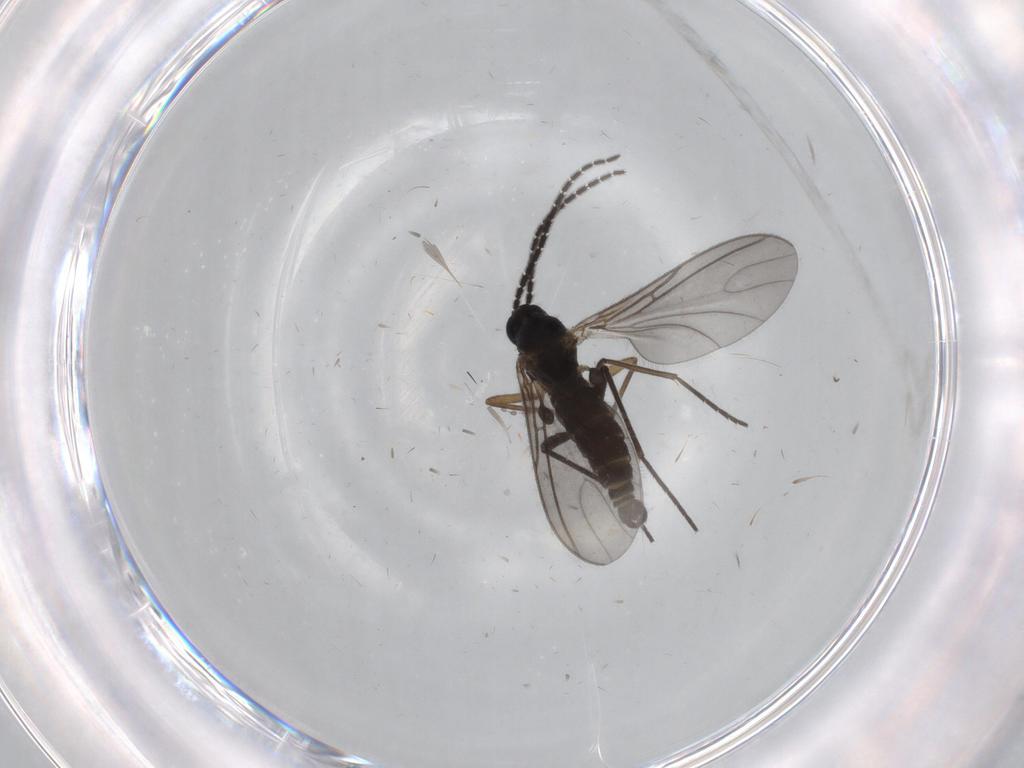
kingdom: Animalia
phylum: Arthropoda
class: Insecta
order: Diptera
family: Sciaridae
